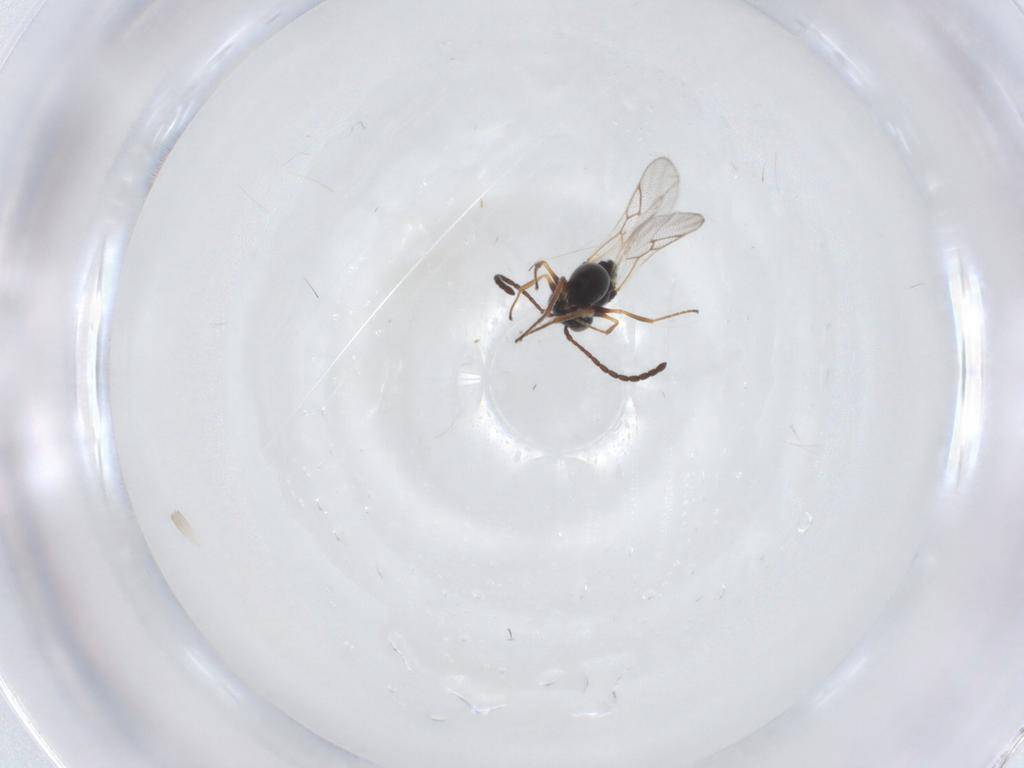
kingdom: Animalia
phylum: Arthropoda
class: Insecta
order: Hymenoptera
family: Figitidae
